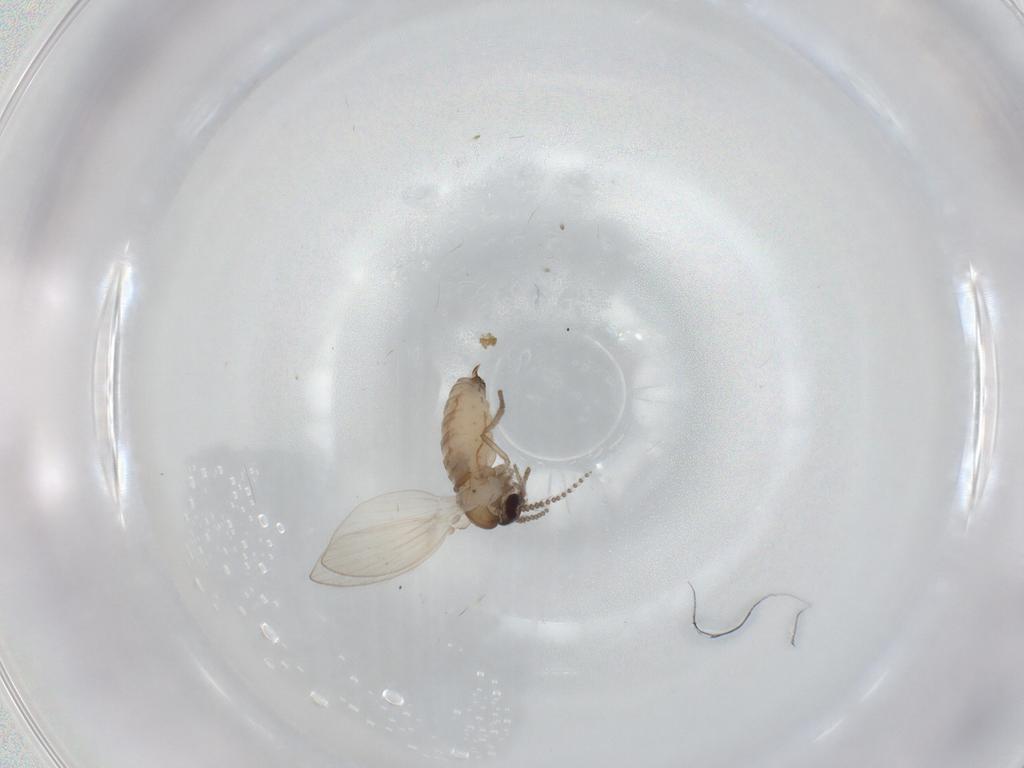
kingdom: Animalia
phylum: Arthropoda
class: Insecta
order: Diptera
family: Psychodidae
